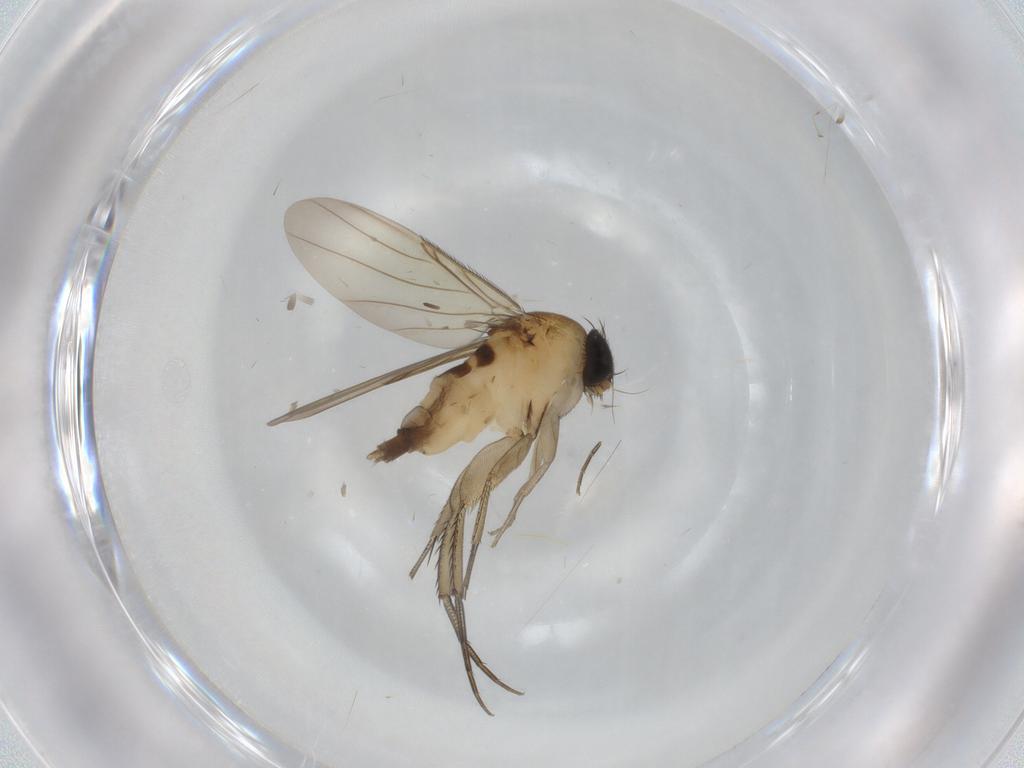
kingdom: Animalia
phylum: Arthropoda
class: Insecta
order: Diptera
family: Phoridae
